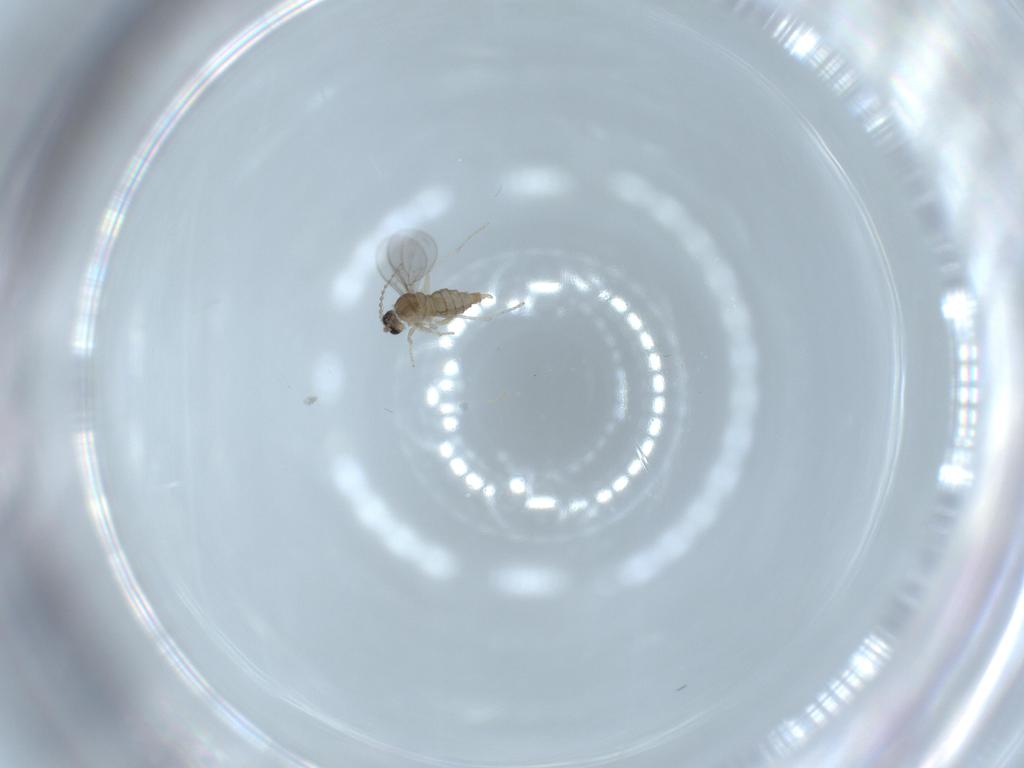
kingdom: Animalia
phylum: Arthropoda
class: Insecta
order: Diptera
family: Cecidomyiidae
